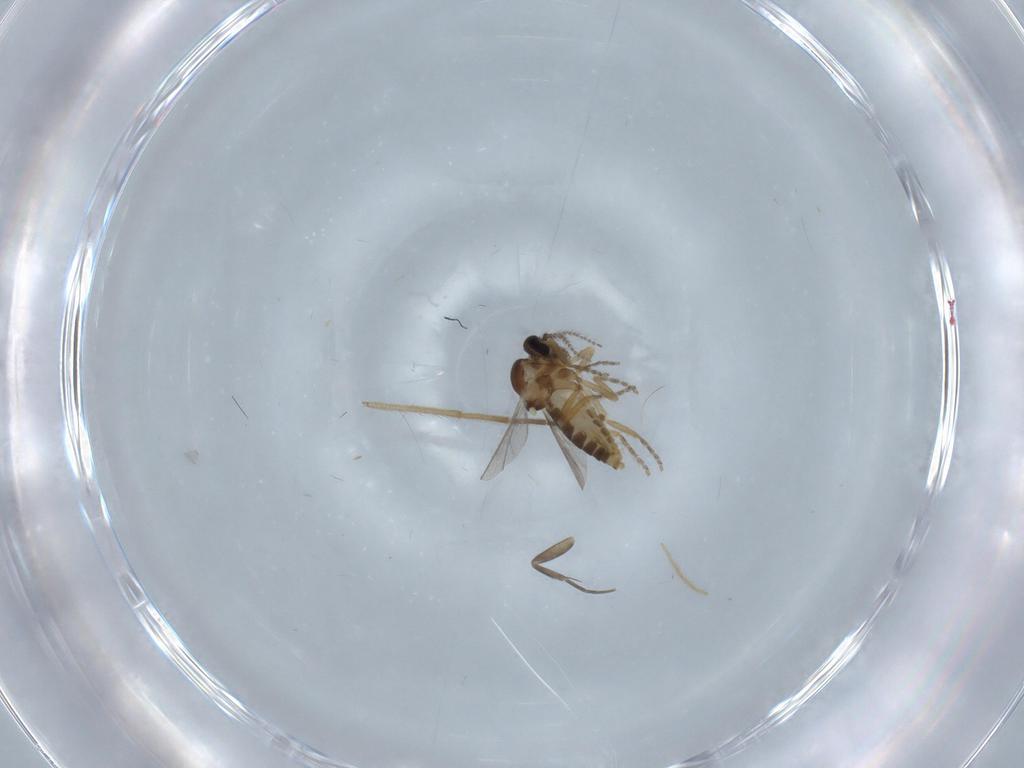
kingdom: Animalia
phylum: Arthropoda
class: Insecta
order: Diptera
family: Ceratopogonidae
